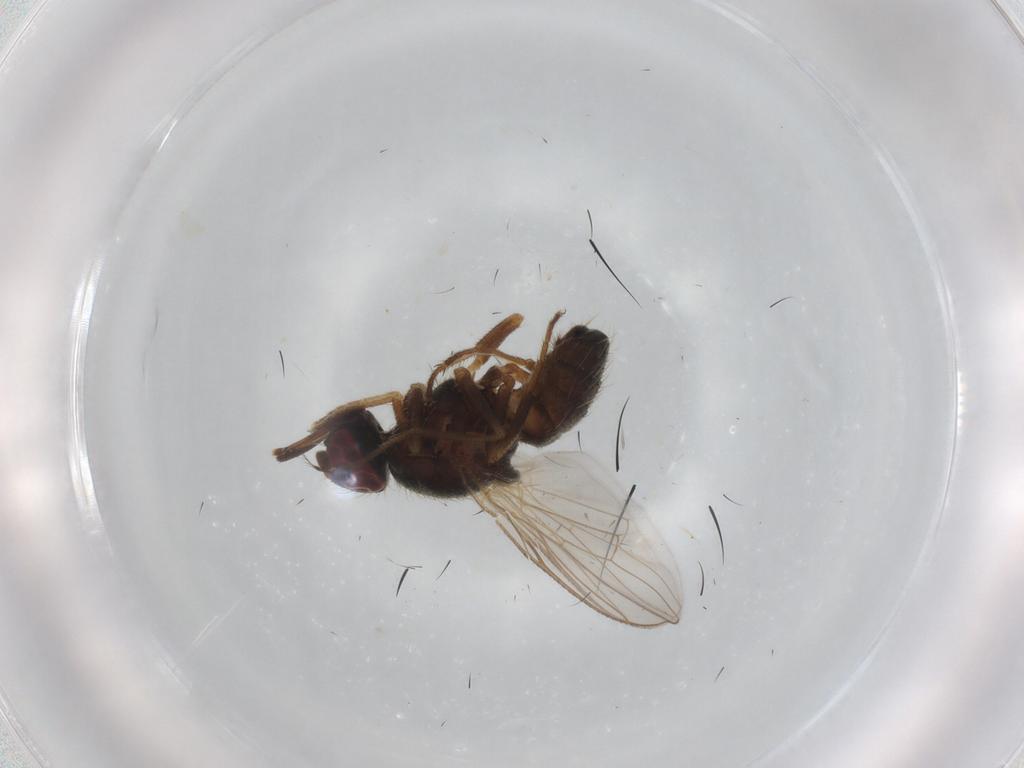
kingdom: Animalia
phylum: Arthropoda
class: Insecta
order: Diptera
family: Muscidae
